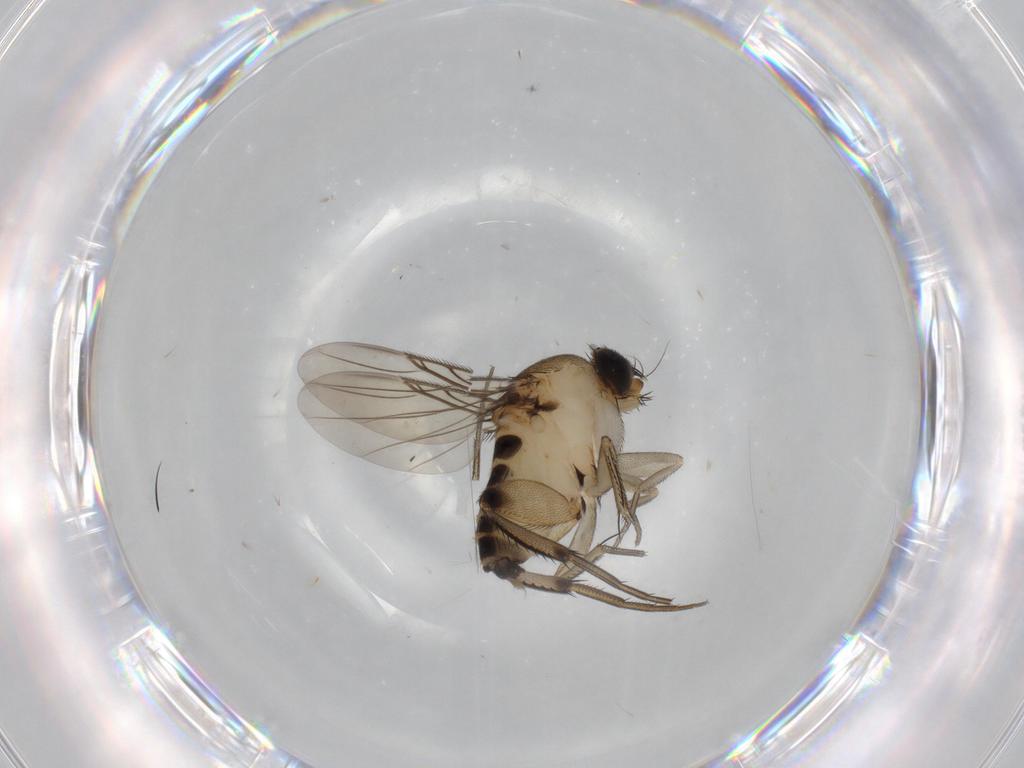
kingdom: Animalia
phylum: Arthropoda
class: Insecta
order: Diptera
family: Phoridae
